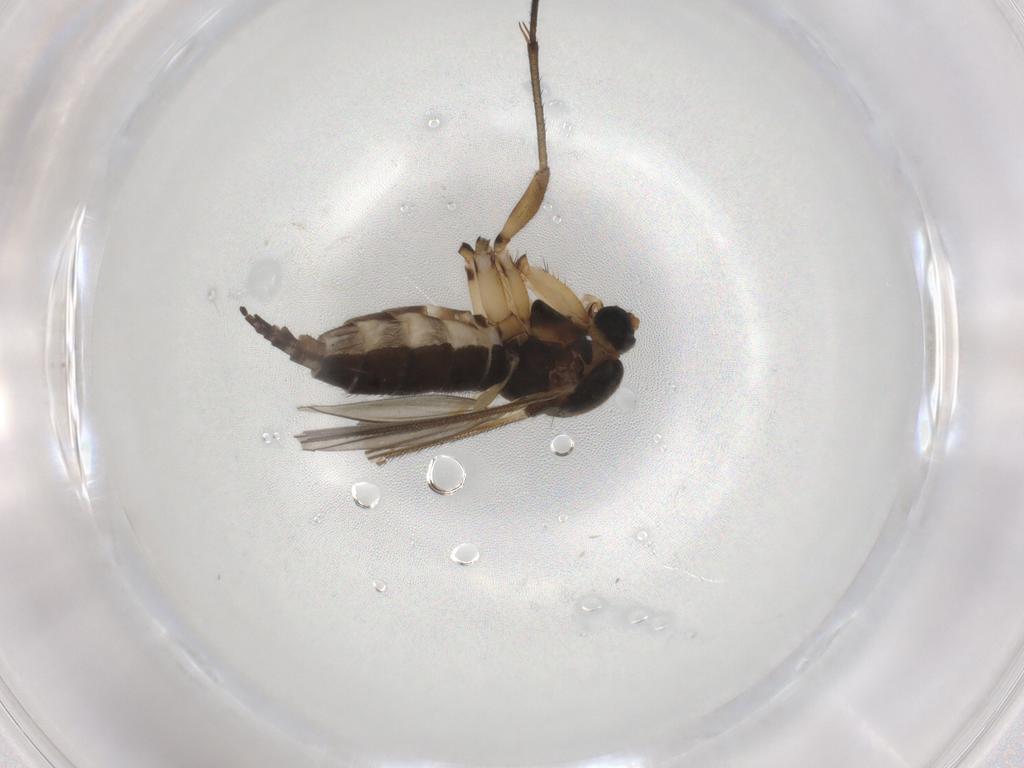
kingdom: Animalia
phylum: Arthropoda
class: Insecta
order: Diptera
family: Sciaridae
